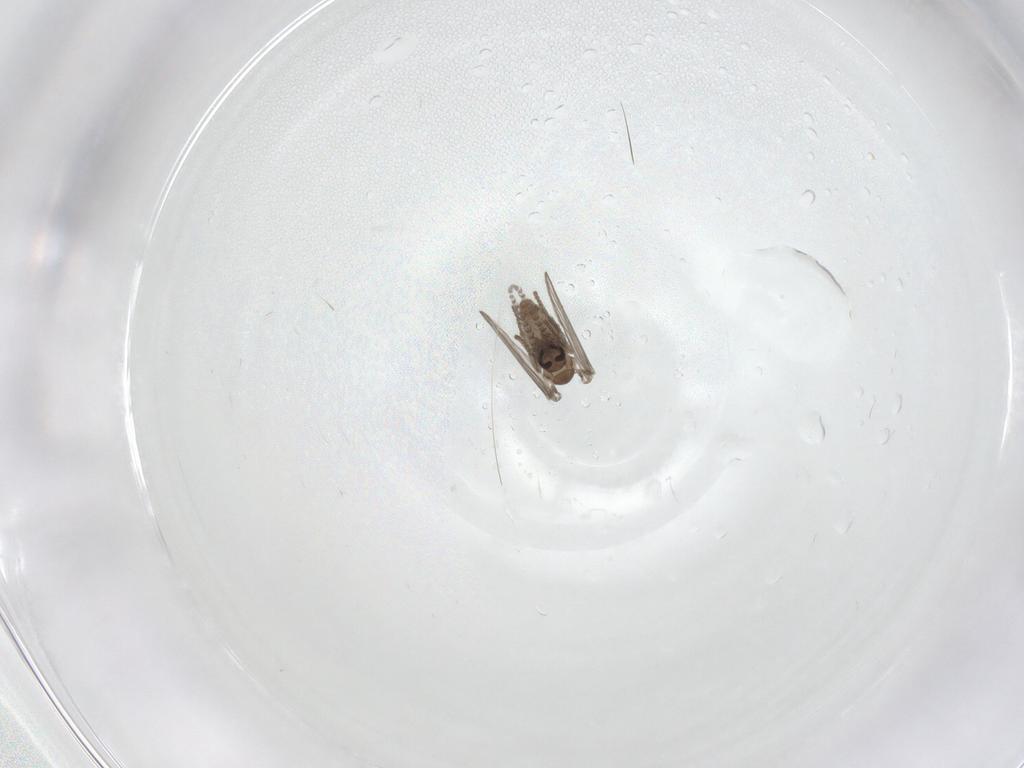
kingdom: Animalia
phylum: Arthropoda
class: Insecta
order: Diptera
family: Psychodidae
